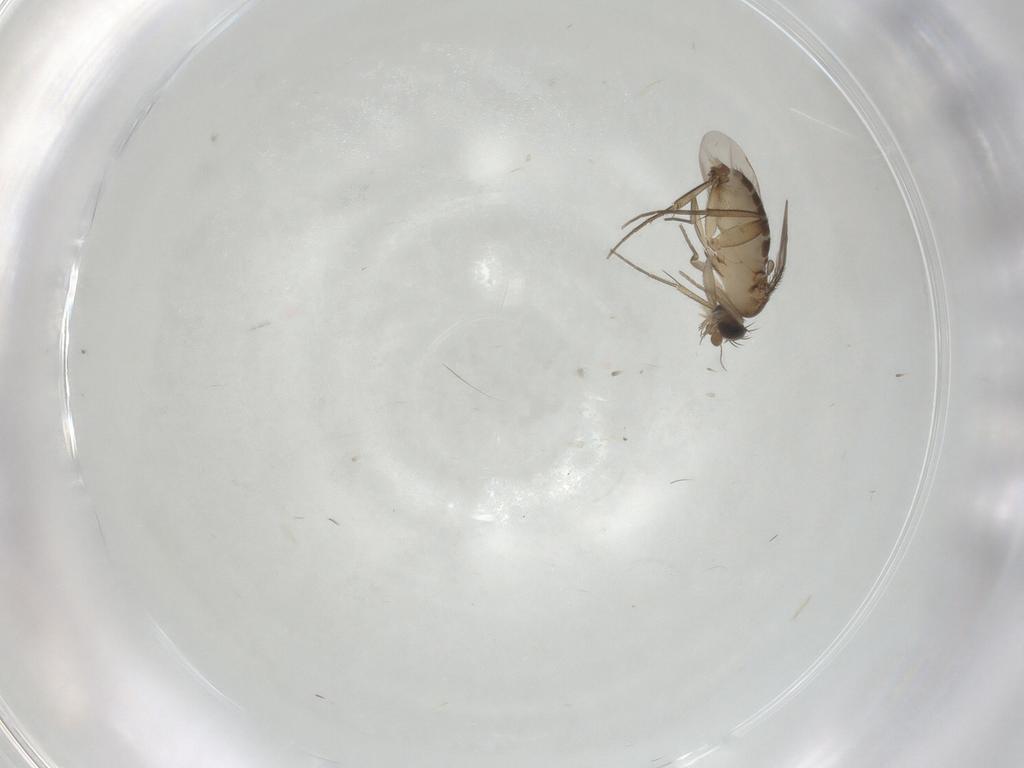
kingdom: Animalia
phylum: Arthropoda
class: Insecta
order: Diptera
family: Phoridae
